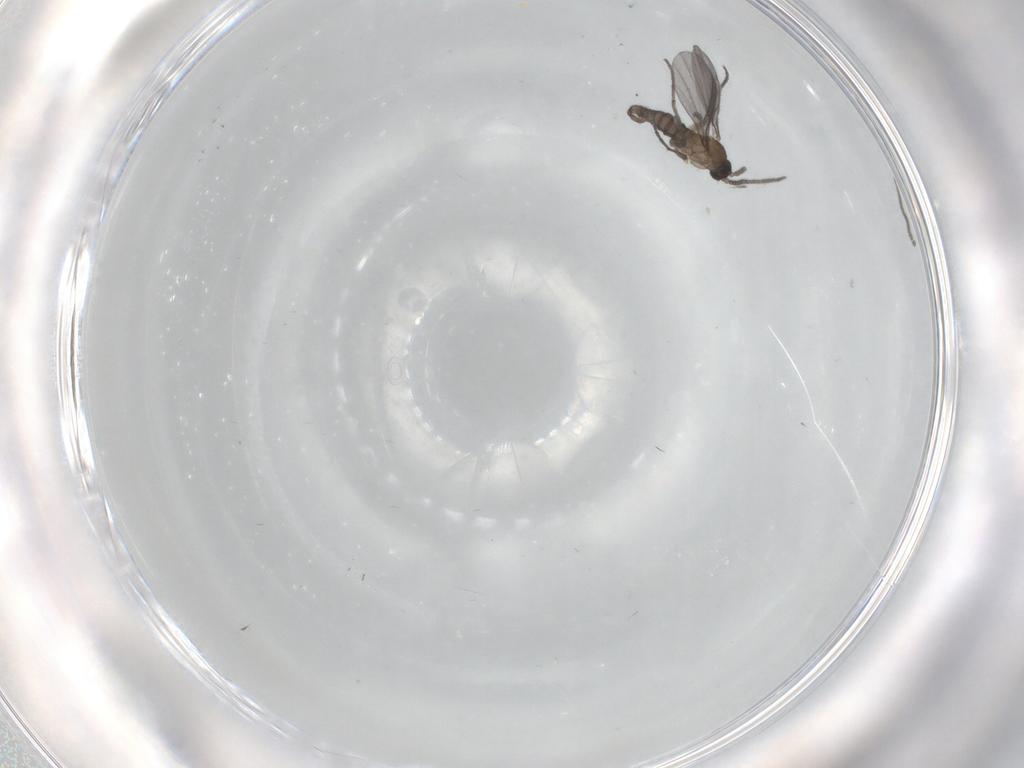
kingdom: Animalia
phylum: Arthropoda
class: Insecta
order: Diptera
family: Sciaridae
